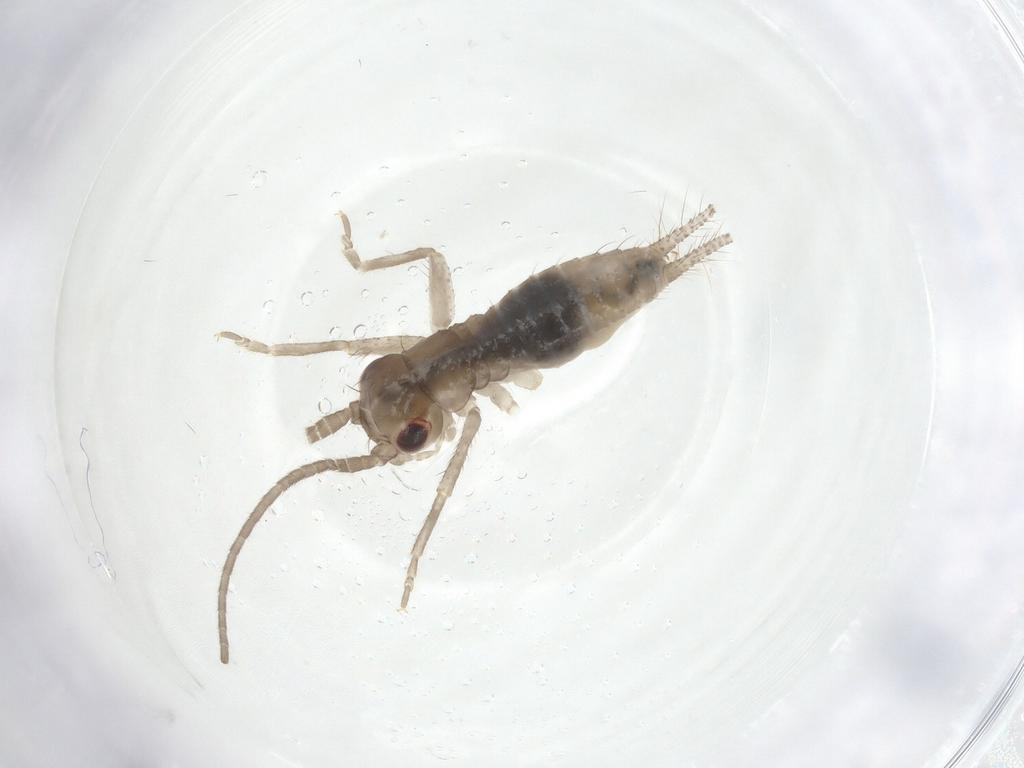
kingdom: Animalia
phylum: Arthropoda
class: Insecta
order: Orthoptera
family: Gryllidae
